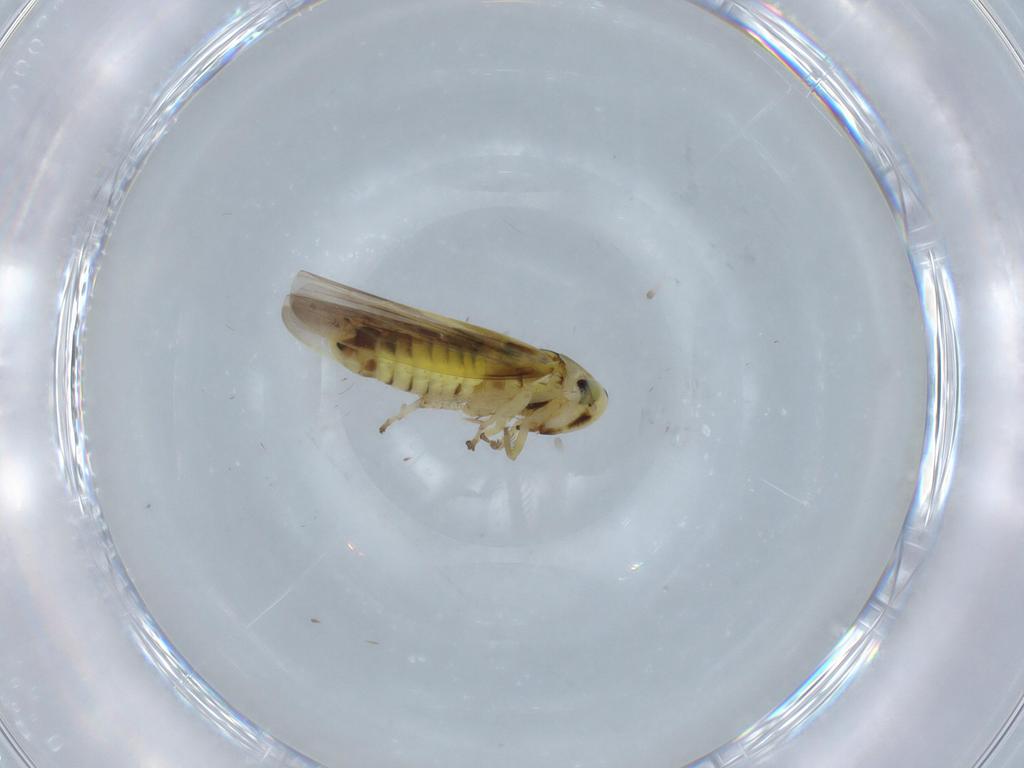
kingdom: Animalia
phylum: Arthropoda
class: Insecta
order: Hemiptera
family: Cicadellidae
